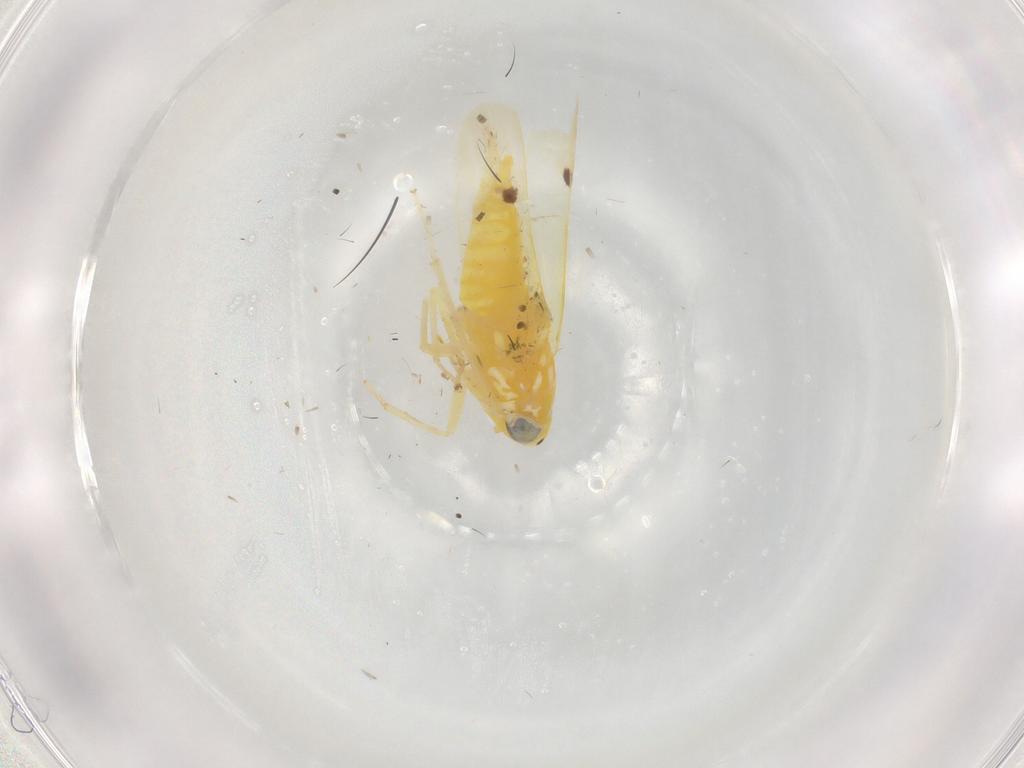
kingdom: Animalia
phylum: Arthropoda
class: Insecta
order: Hemiptera
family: Cicadellidae
